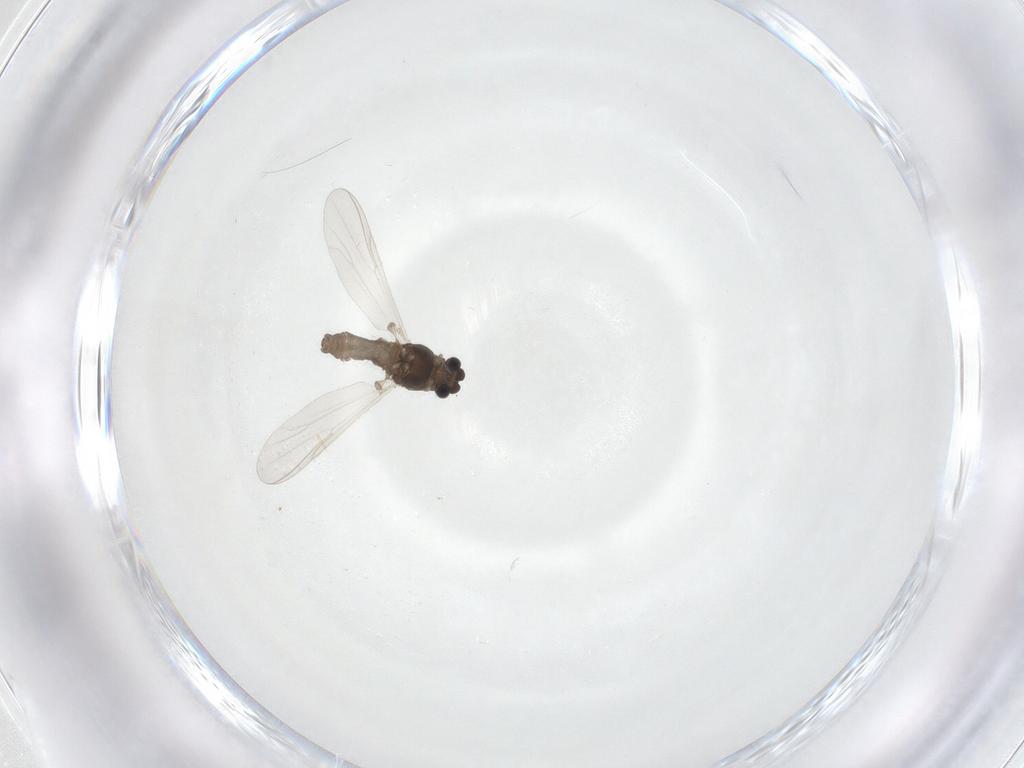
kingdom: Animalia
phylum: Arthropoda
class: Insecta
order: Diptera
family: Chironomidae
